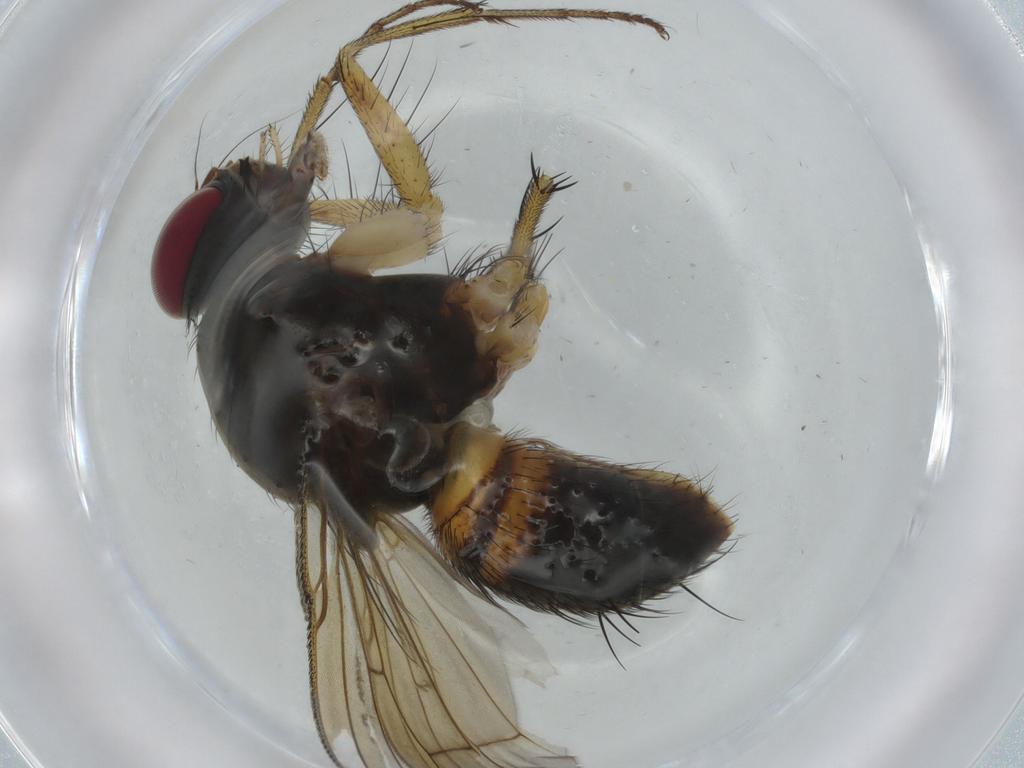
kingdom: Animalia
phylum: Arthropoda
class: Insecta
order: Diptera
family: Muscidae
